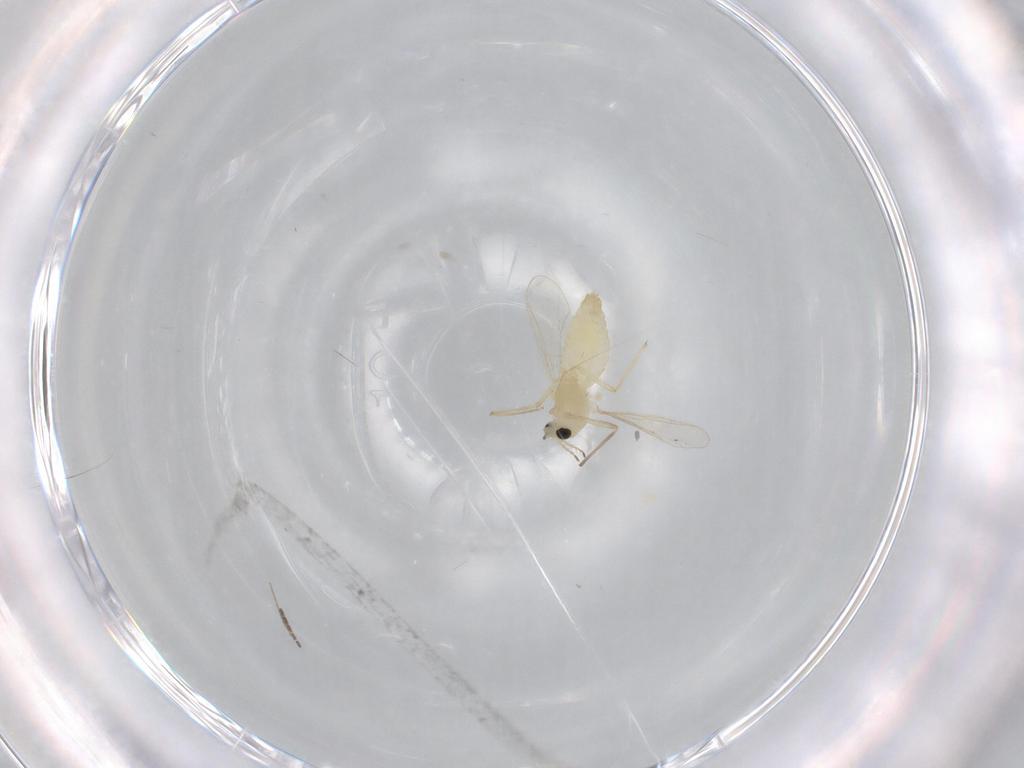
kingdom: Animalia
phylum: Arthropoda
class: Insecta
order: Diptera
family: Chironomidae
